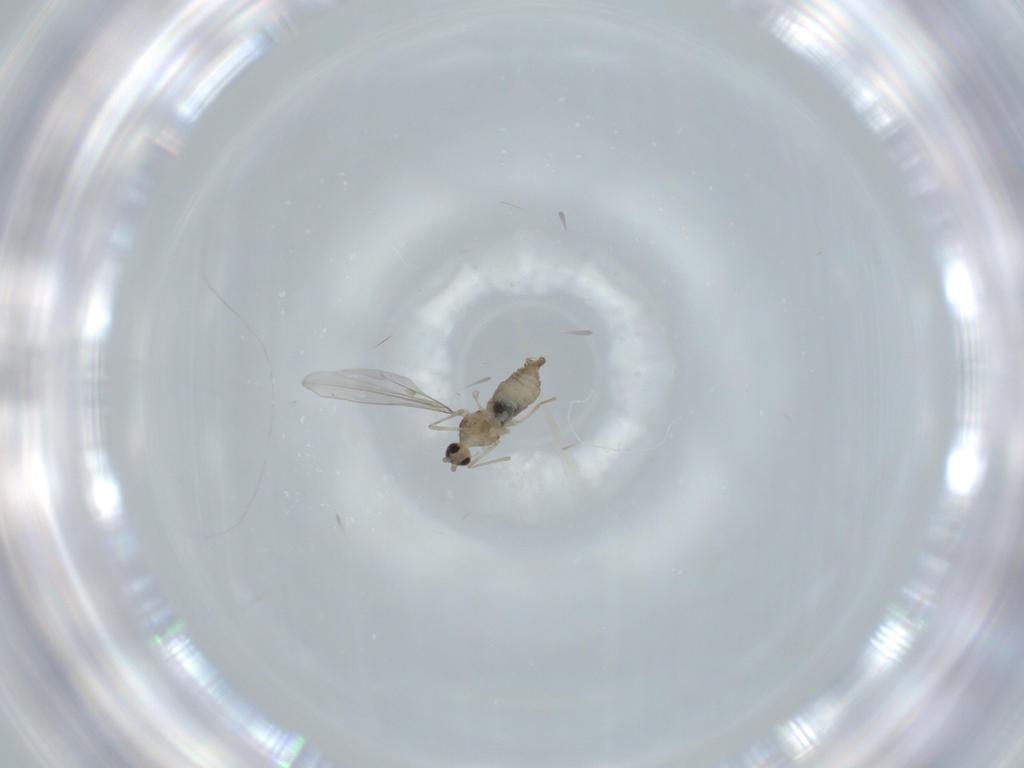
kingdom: Animalia
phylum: Arthropoda
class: Insecta
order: Diptera
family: Cecidomyiidae
